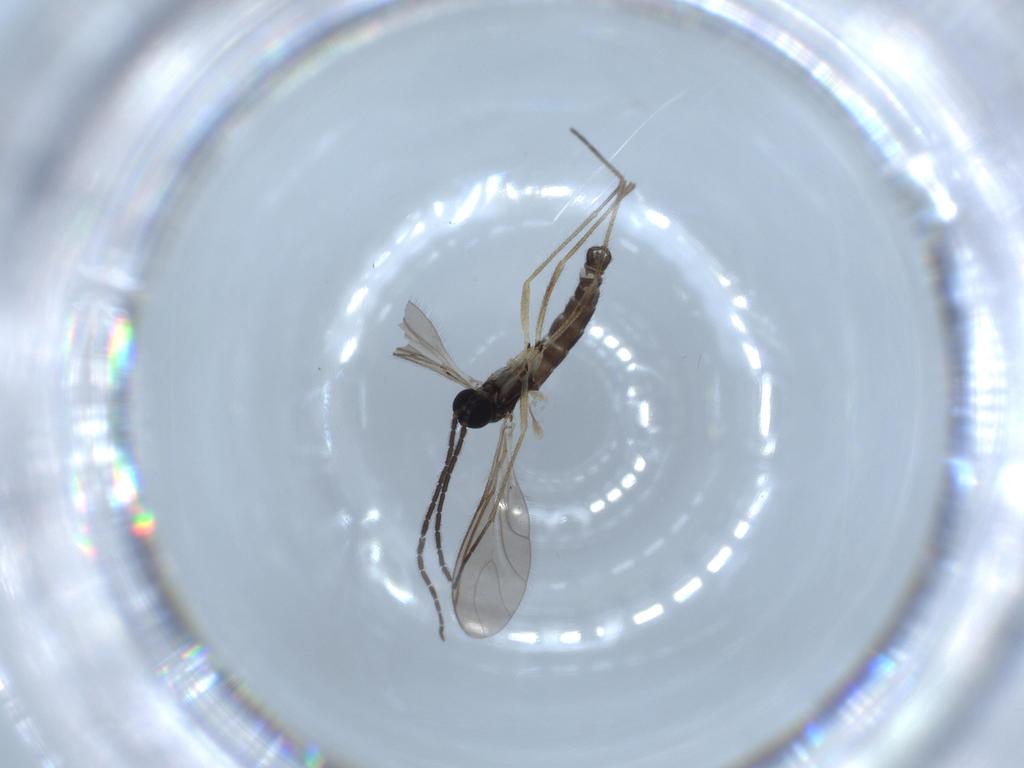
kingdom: Animalia
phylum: Arthropoda
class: Insecta
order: Diptera
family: Sciaridae
